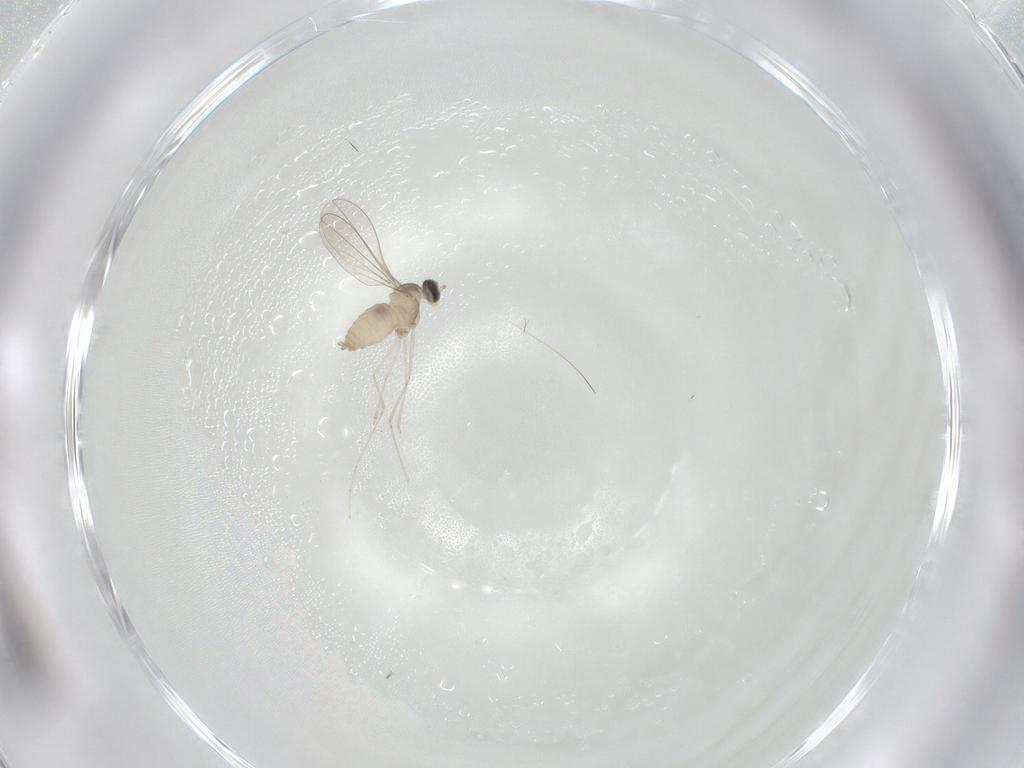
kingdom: Animalia
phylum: Arthropoda
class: Insecta
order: Diptera
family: Cecidomyiidae
